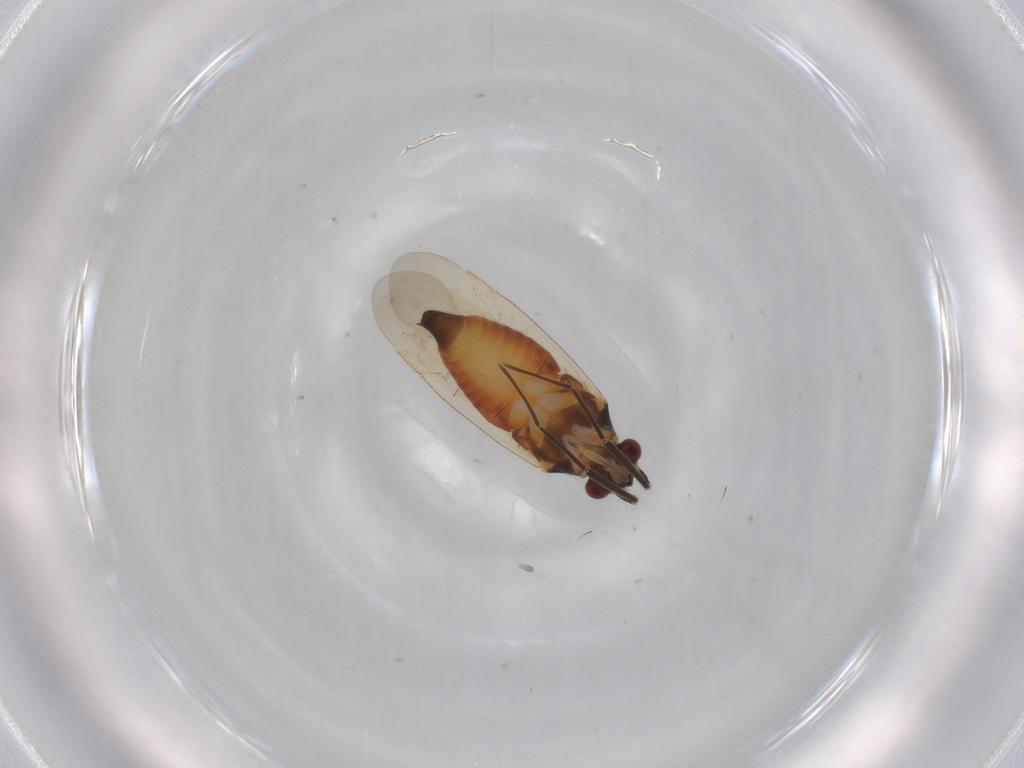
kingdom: Animalia
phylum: Arthropoda
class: Insecta
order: Hemiptera
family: Miridae
